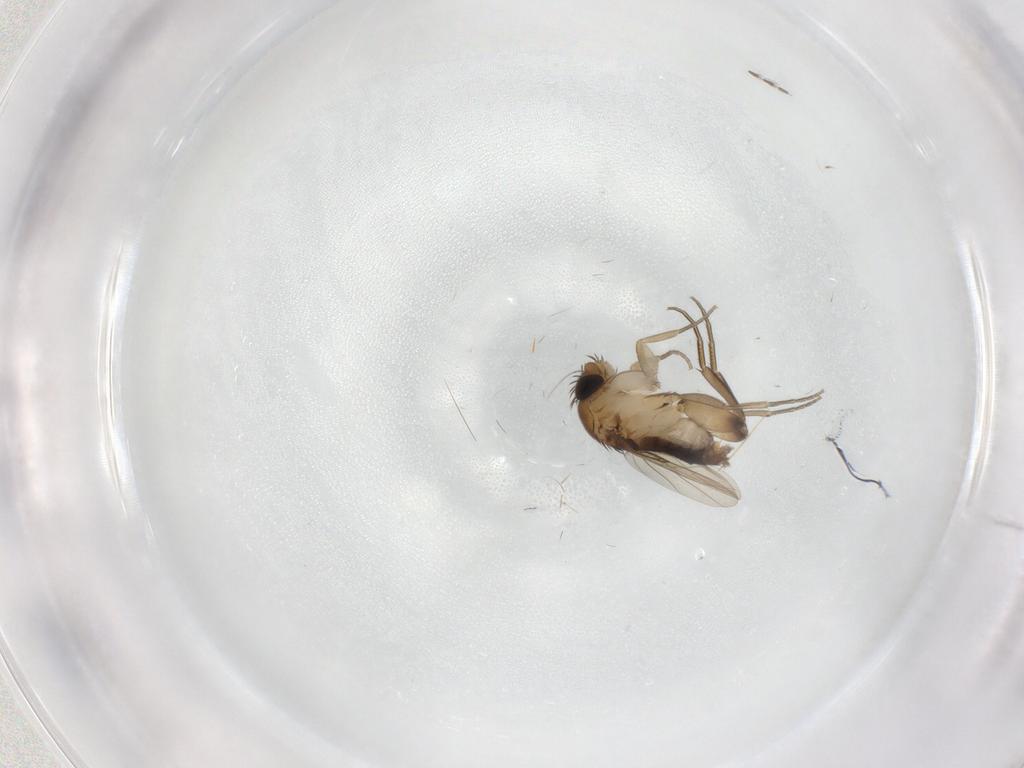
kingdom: Animalia
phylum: Arthropoda
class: Insecta
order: Diptera
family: Phoridae
